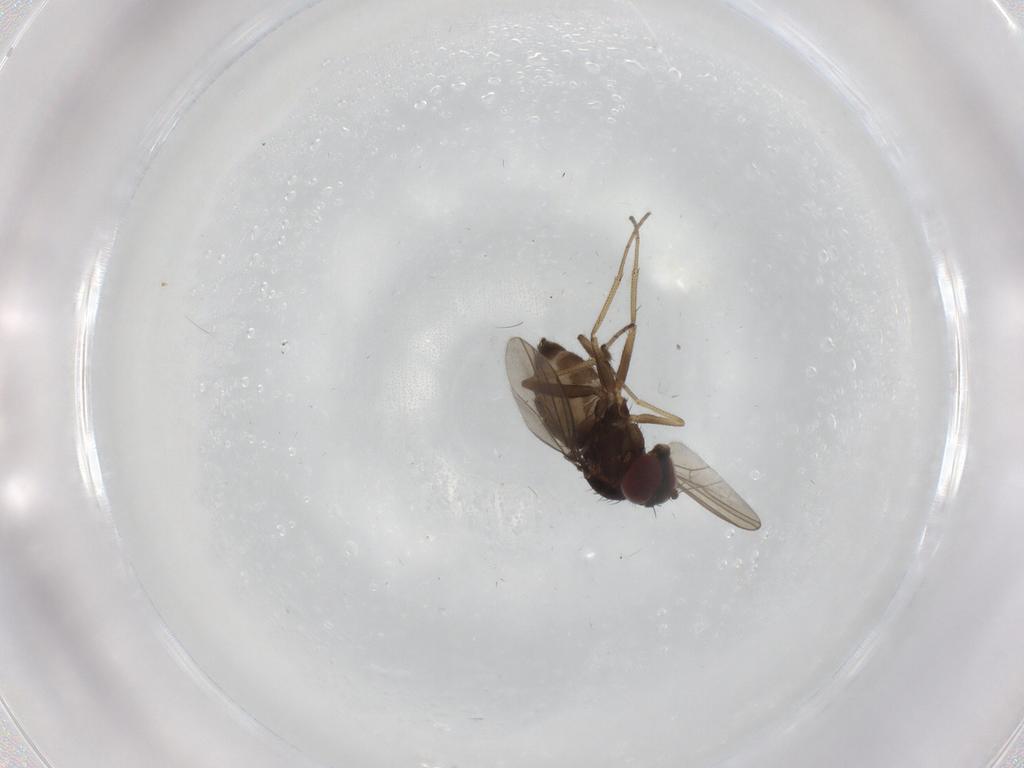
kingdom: Animalia
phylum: Arthropoda
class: Insecta
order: Diptera
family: Dolichopodidae
